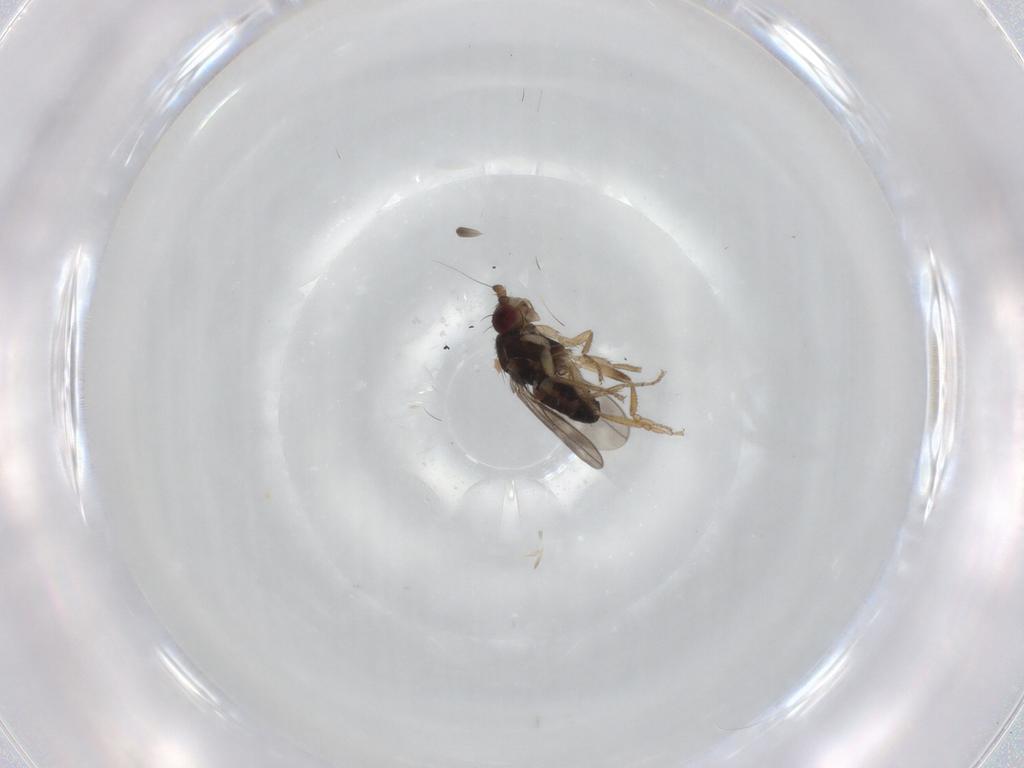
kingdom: Animalia
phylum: Arthropoda
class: Insecta
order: Diptera
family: Sphaeroceridae
